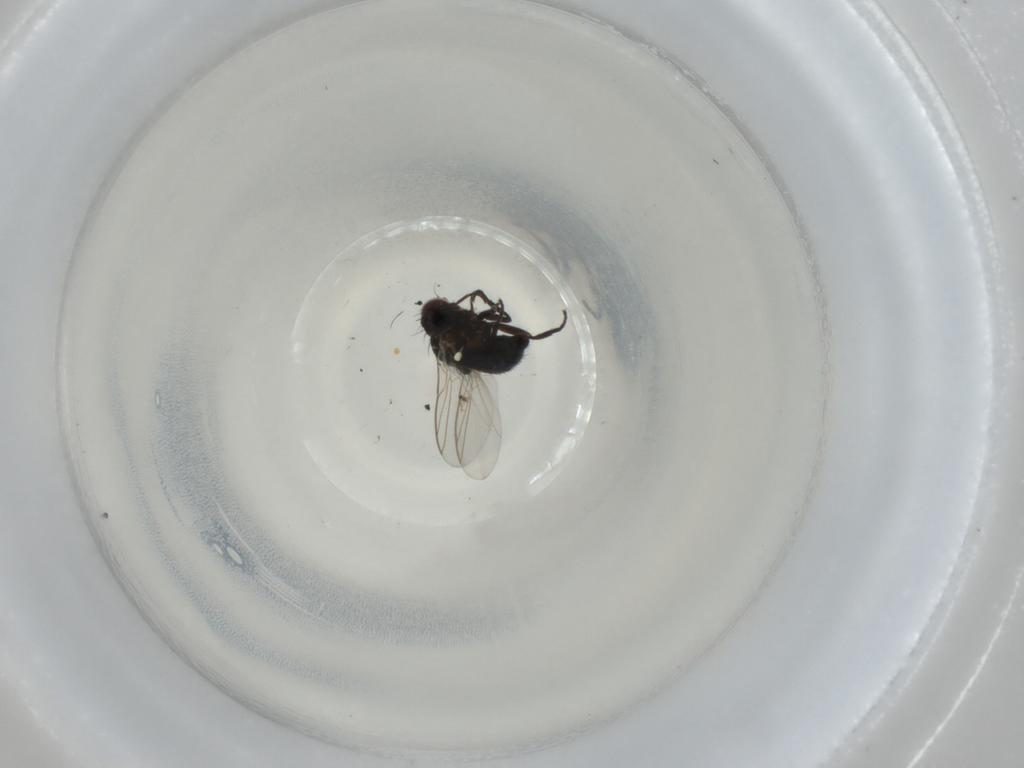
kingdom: Animalia
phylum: Arthropoda
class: Insecta
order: Diptera
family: Agromyzidae
